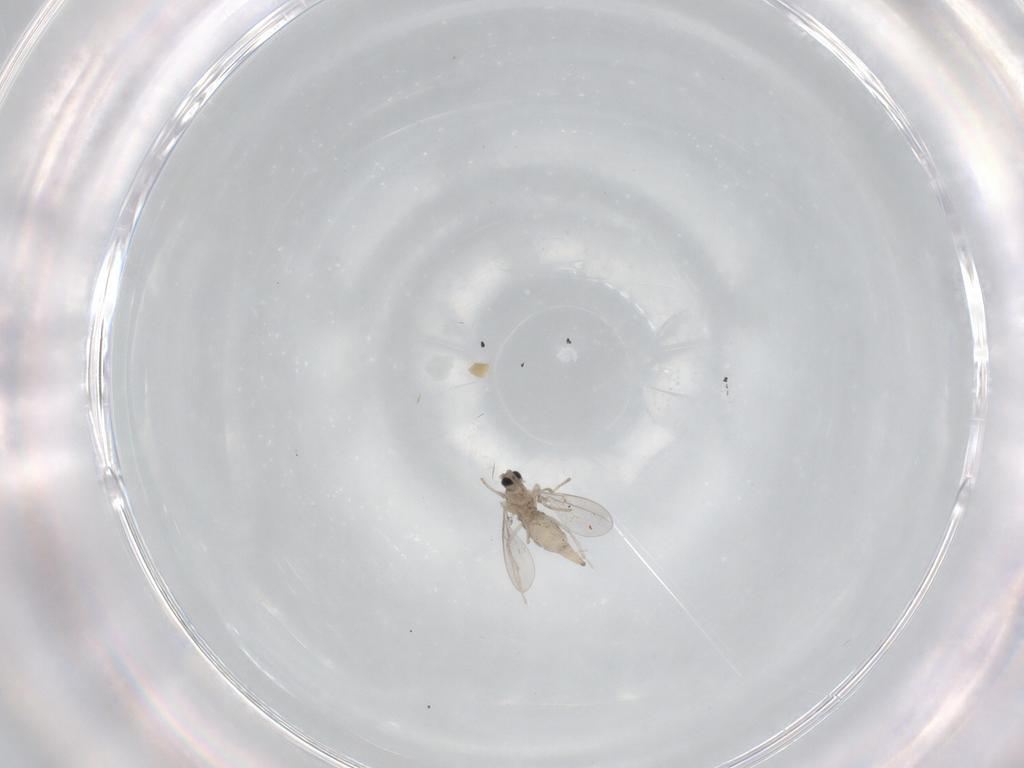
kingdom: Animalia
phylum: Arthropoda
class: Insecta
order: Diptera
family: Cecidomyiidae
